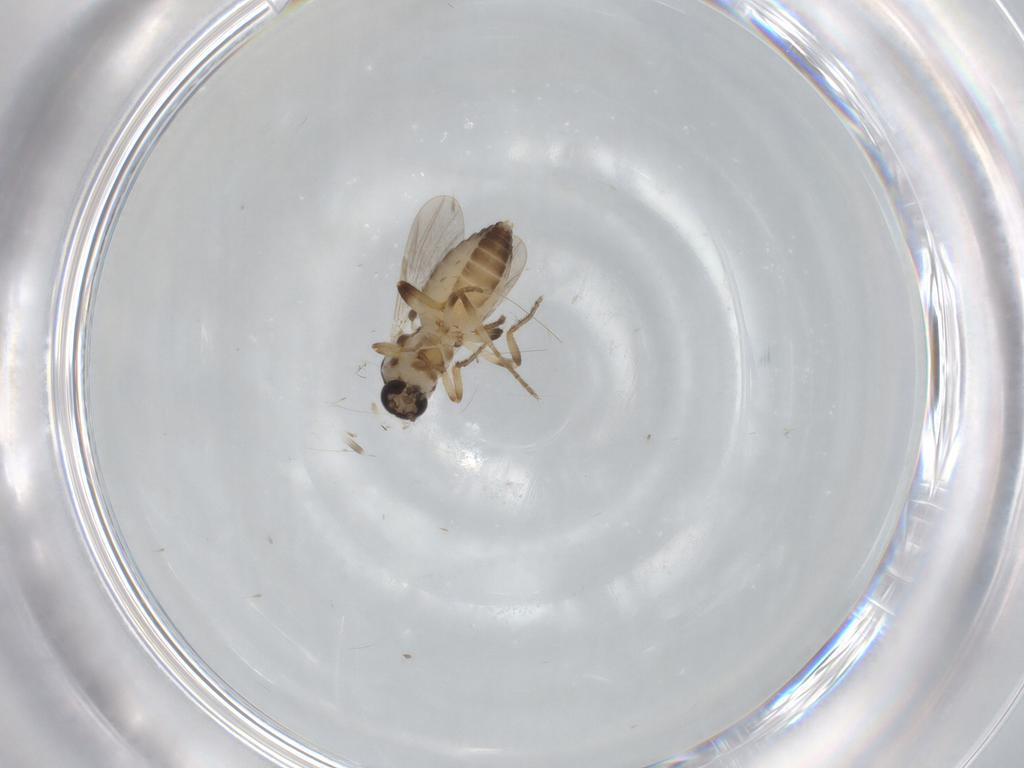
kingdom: Animalia
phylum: Arthropoda
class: Insecta
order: Diptera
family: Ceratopogonidae
